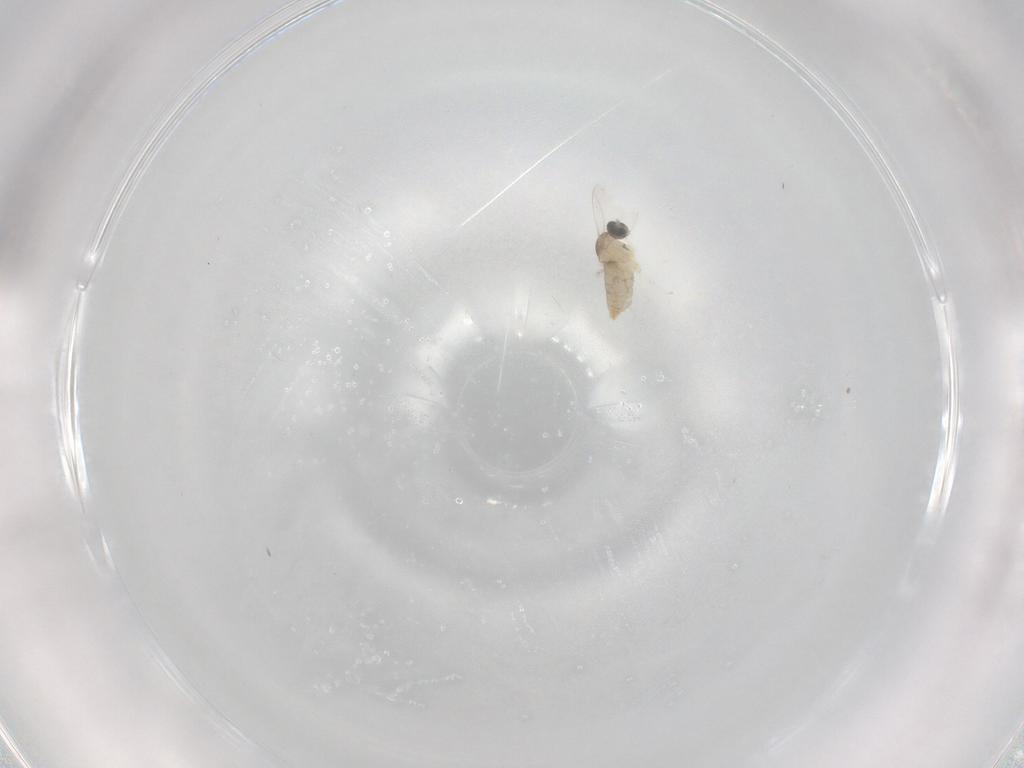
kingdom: Animalia
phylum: Arthropoda
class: Insecta
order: Diptera
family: Cecidomyiidae
